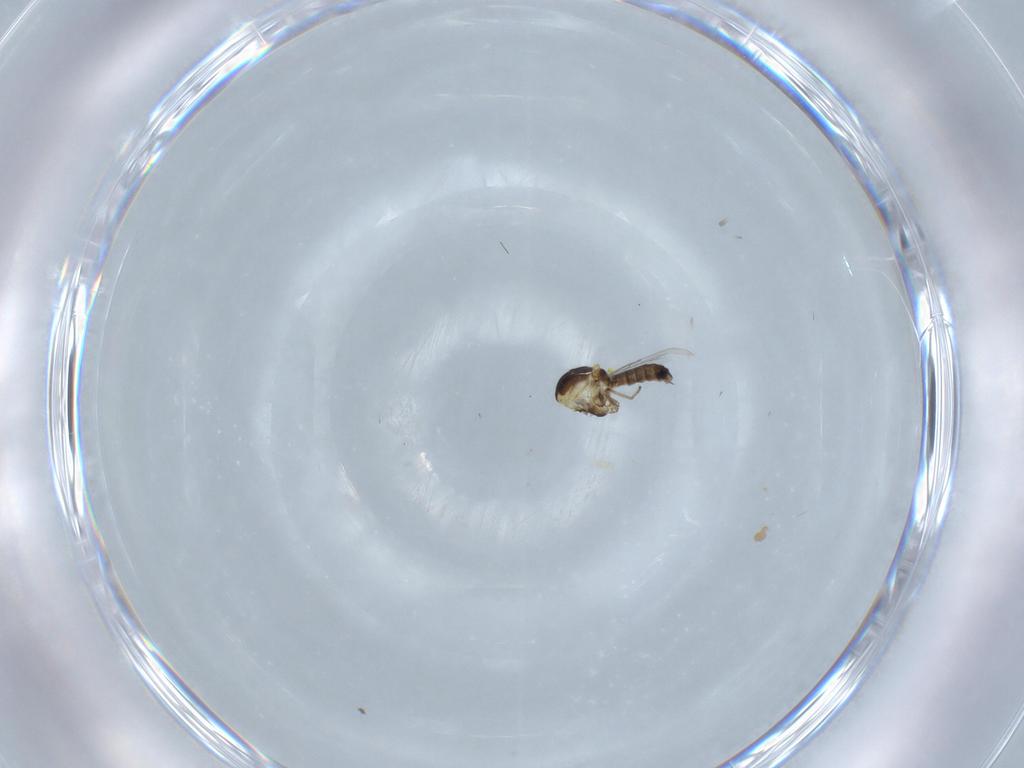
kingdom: Animalia
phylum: Arthropoda
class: Insecta
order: Diptera
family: Ceratopogonidae
